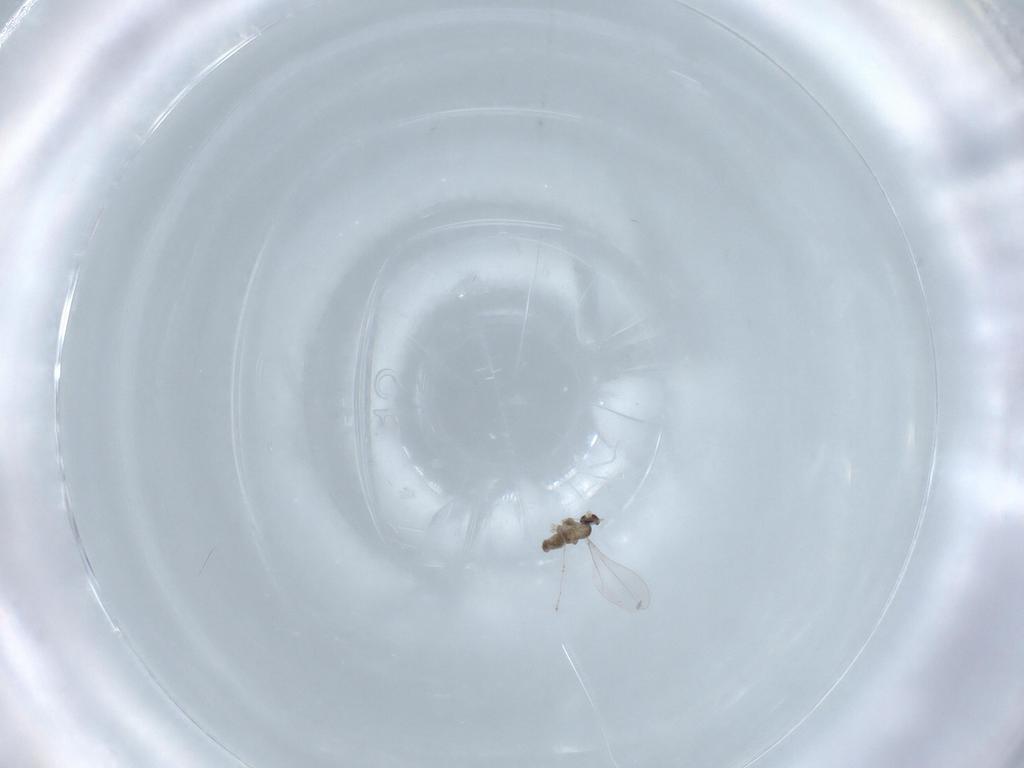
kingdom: Animalia
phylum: Arthropoda
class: Insecta
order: Diptera
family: Cecidomyiidae
